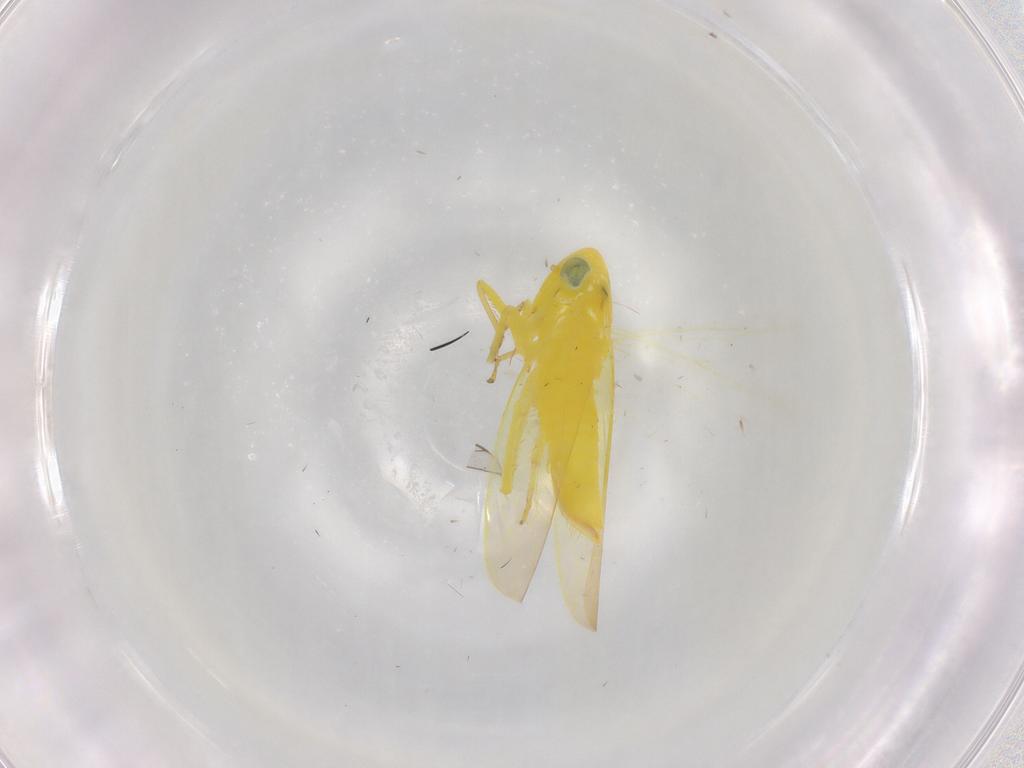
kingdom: Animalia
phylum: Arthropoda
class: Insecta
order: Hemiptera
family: Cicadellidae
